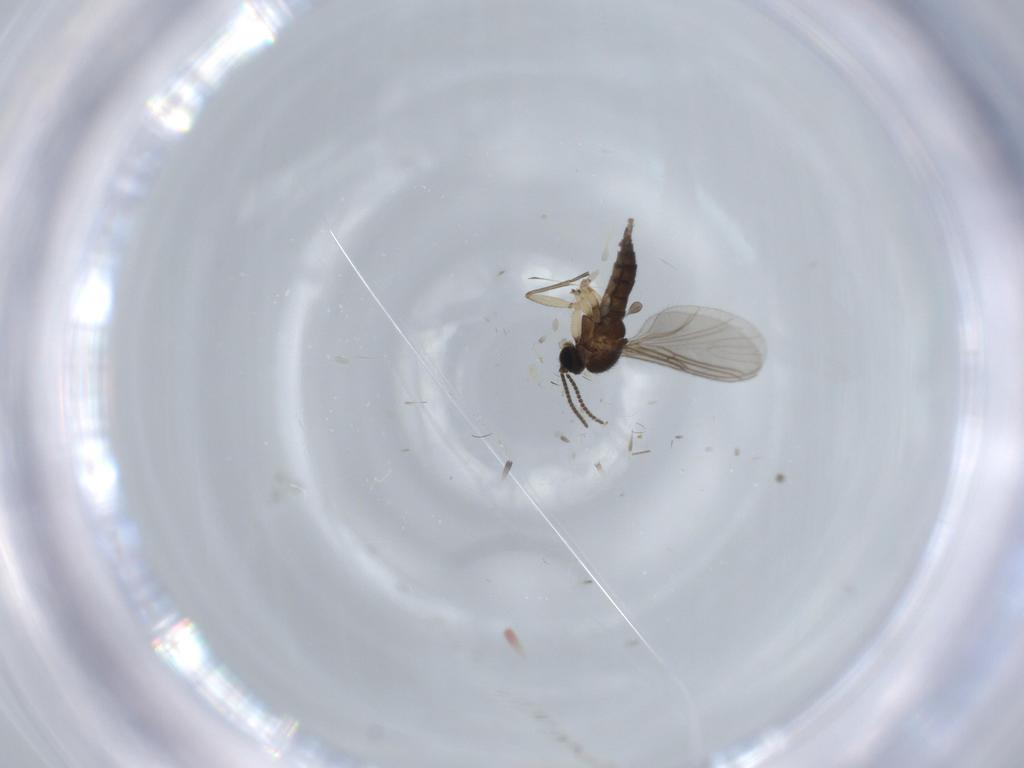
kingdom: Animalia
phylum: Arthropoda
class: Insecta
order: Diptera
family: Sciaridae
